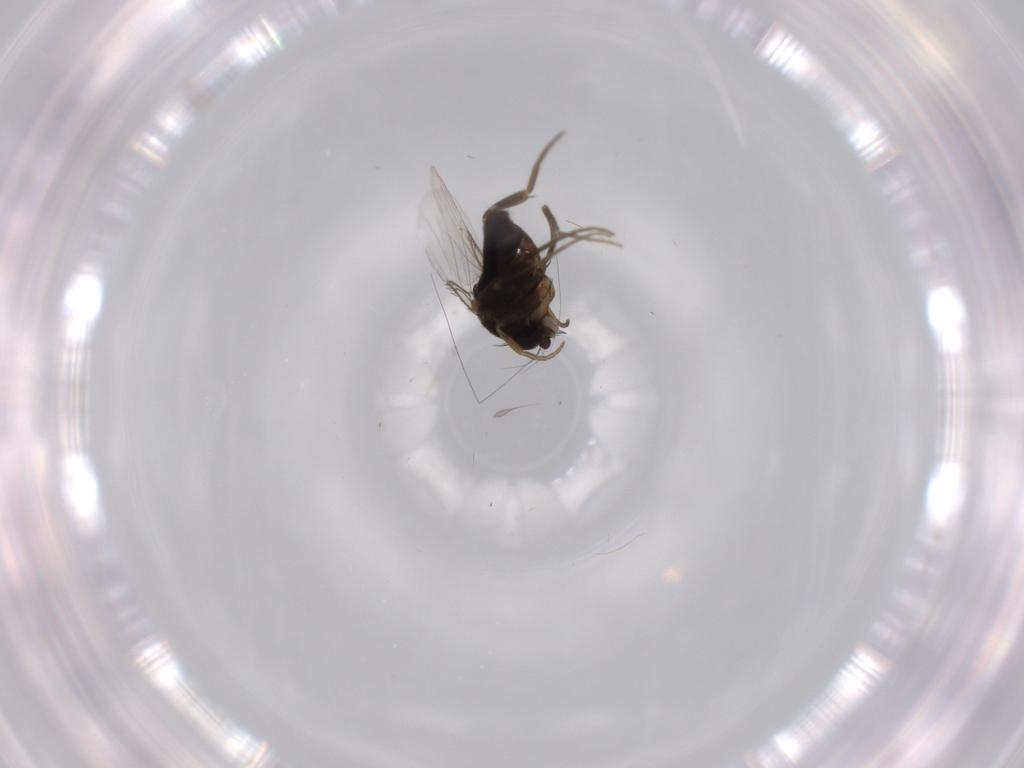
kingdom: Animalia
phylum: Arthropoda
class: Insecta
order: Diptera
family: Phoridae
